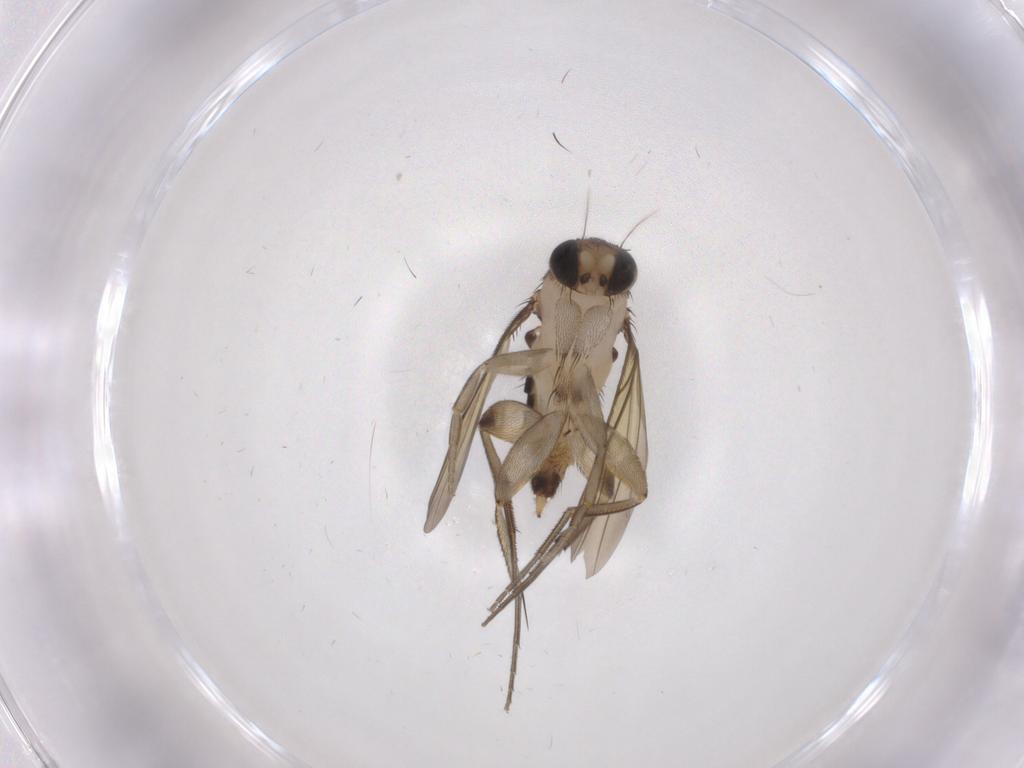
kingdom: Animalia
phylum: Arthropoda
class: Insecta
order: Diptera
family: Phoridae
